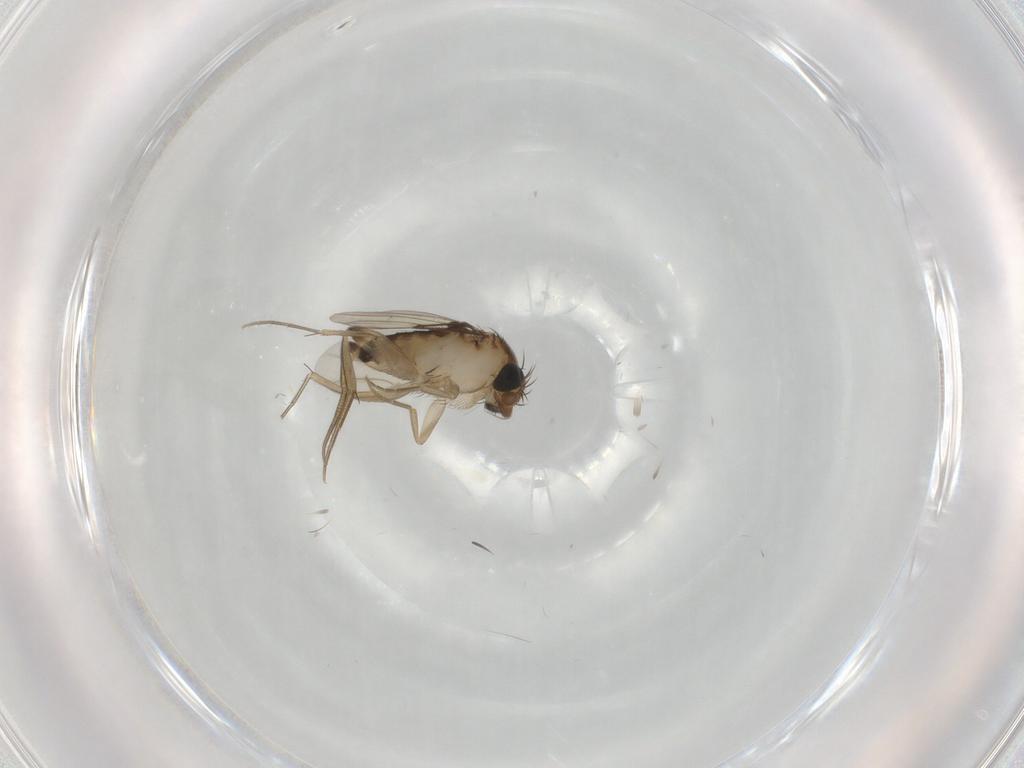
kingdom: Animalia
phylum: Arthropoda
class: Insecta
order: Diptera
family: Phoridae
